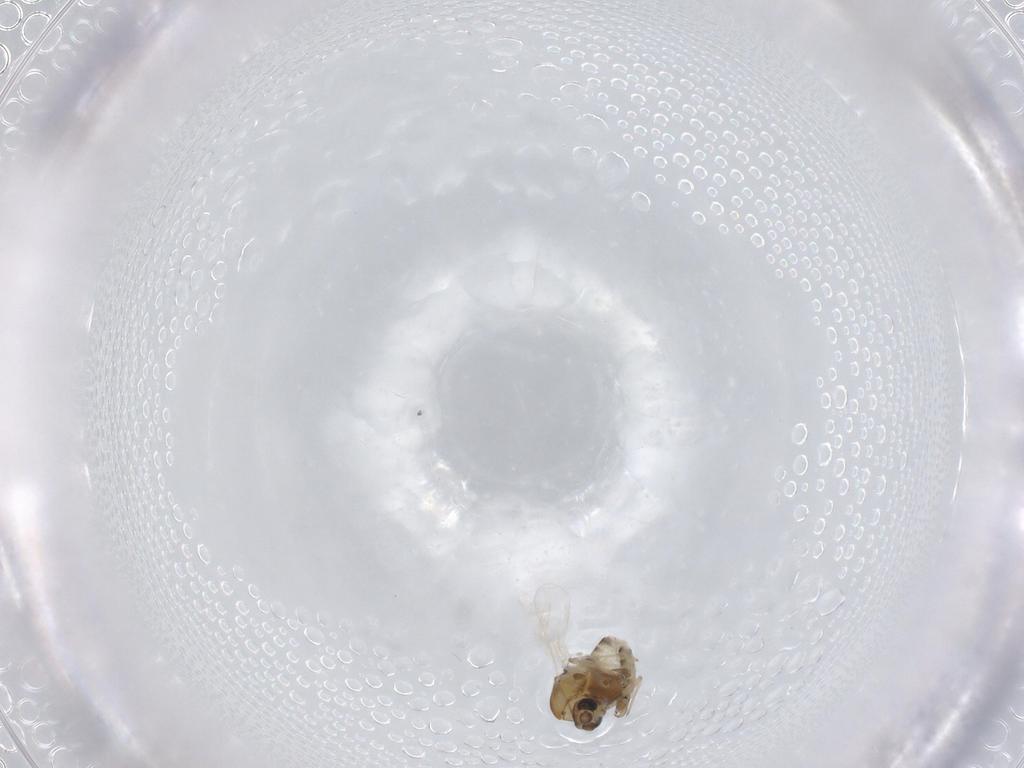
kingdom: Animalia
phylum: Arthropoda
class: Insecta
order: Diptera
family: Chironomidae
